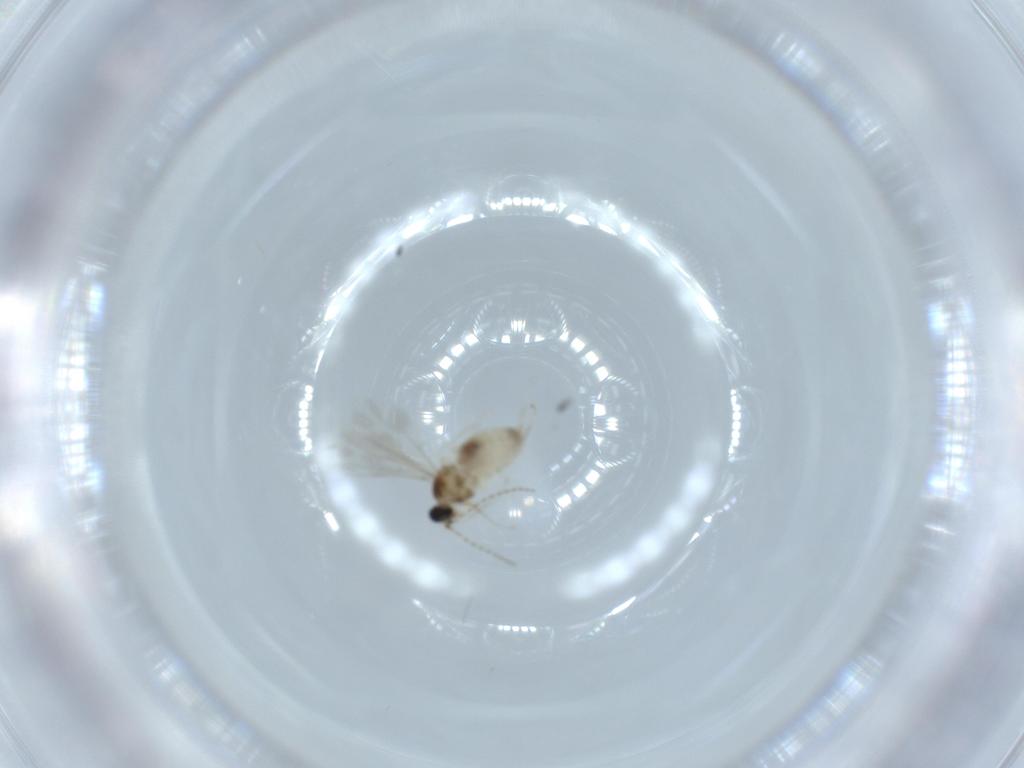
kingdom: Animalia
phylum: Arthropoda
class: Insecta
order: Diptera
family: Cecidomyiidae
